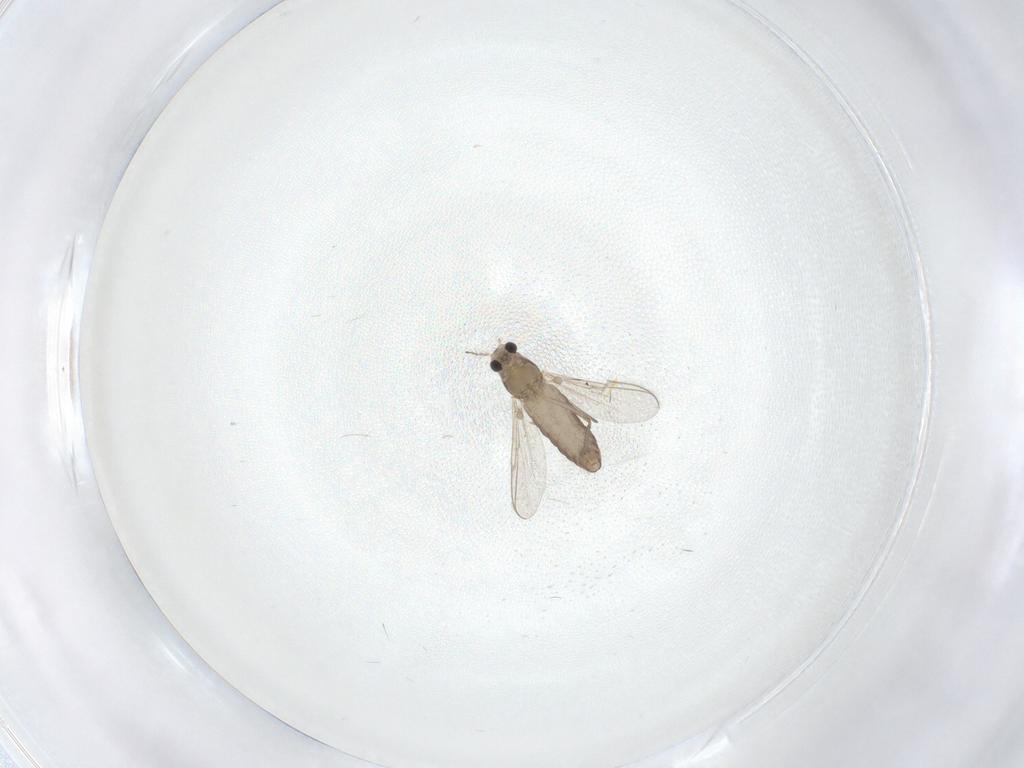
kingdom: Animalia
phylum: Arthropoda
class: Insecta
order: Diptera
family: Chironomidae
